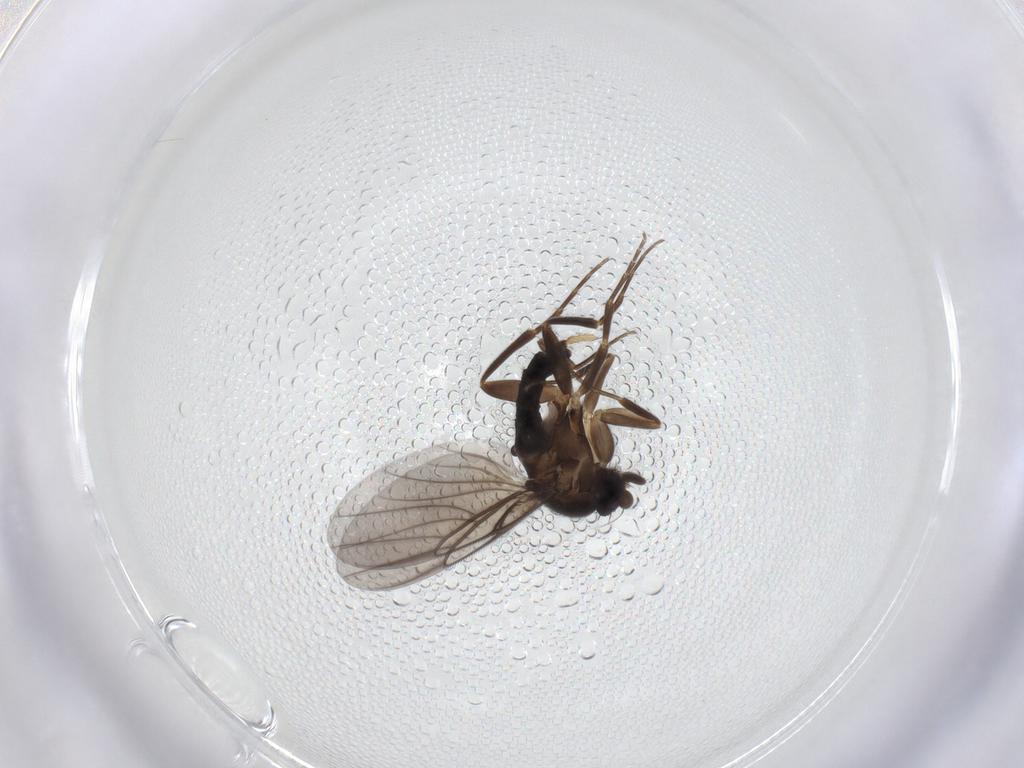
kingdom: Animalia
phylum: Arthropoda
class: Insecta
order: Diptera
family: Phoridae
